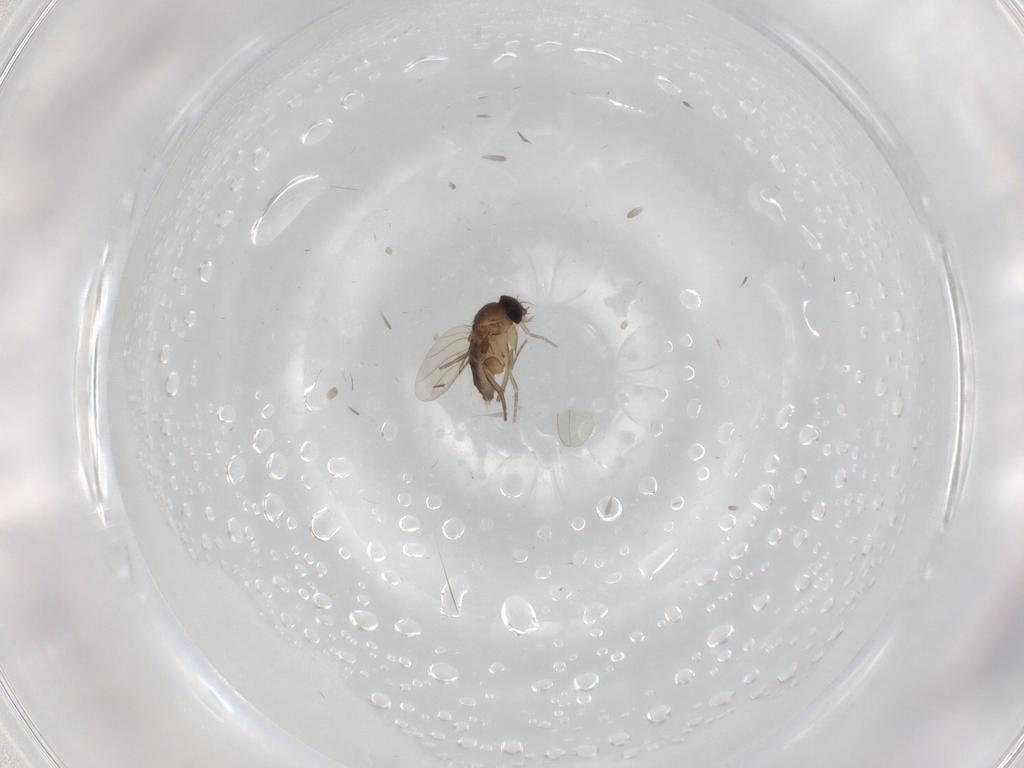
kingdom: Animalia
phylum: Arthropoda
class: Insecta
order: Diptera
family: Phoridae
